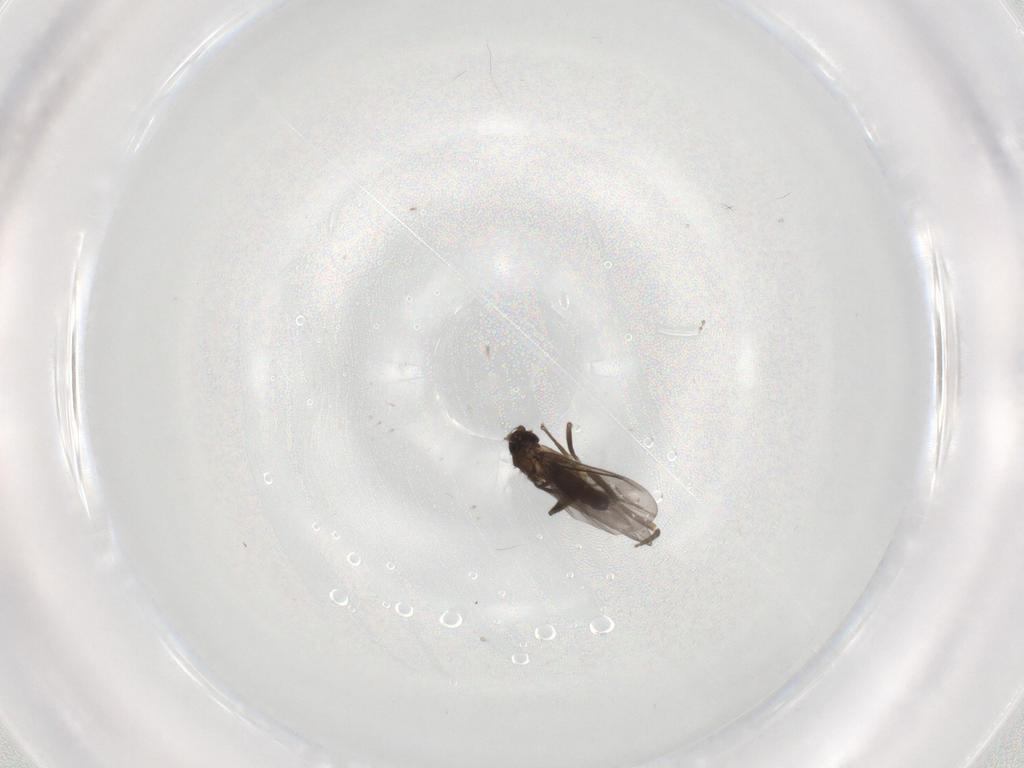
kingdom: Animalia
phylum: Arthropoda
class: Insecta
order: Diptera
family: Phoridae
